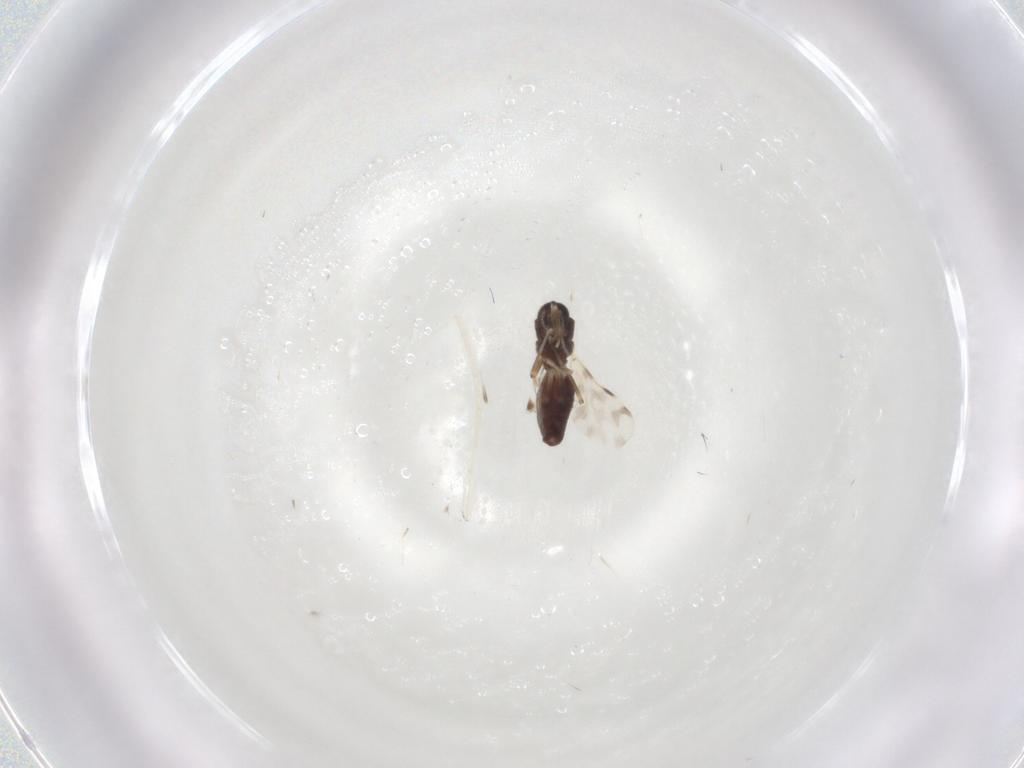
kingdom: Animalia
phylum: Arthropoda
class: Insecta
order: Diptera
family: Ceratopogonidae
